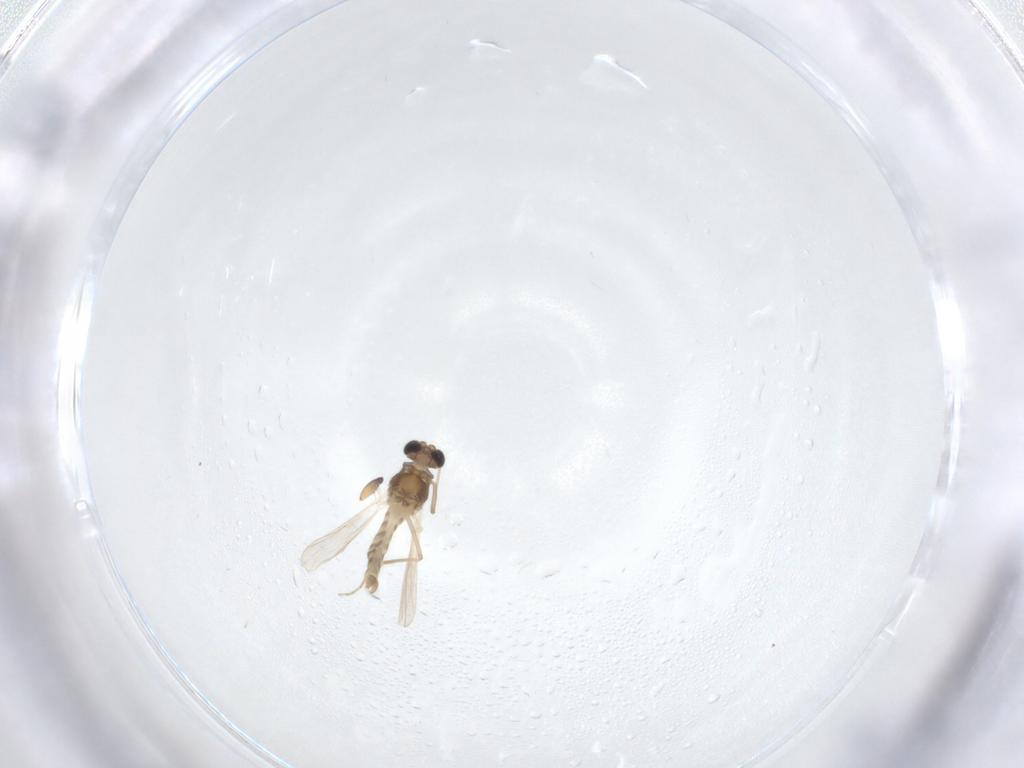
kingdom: Animalia
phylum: Arthropoda
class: Insecta
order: Diptera
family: Chironomidae
